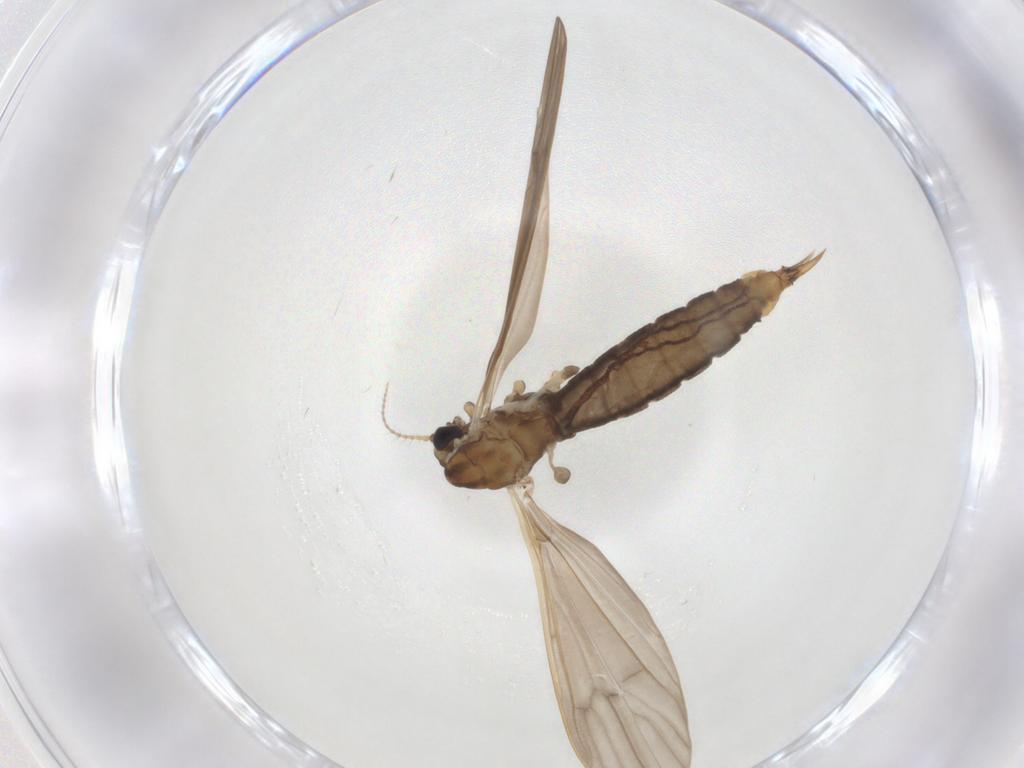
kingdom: Animalia
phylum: Arthropoda
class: Insecta
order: Diptera
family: Limoniidae
